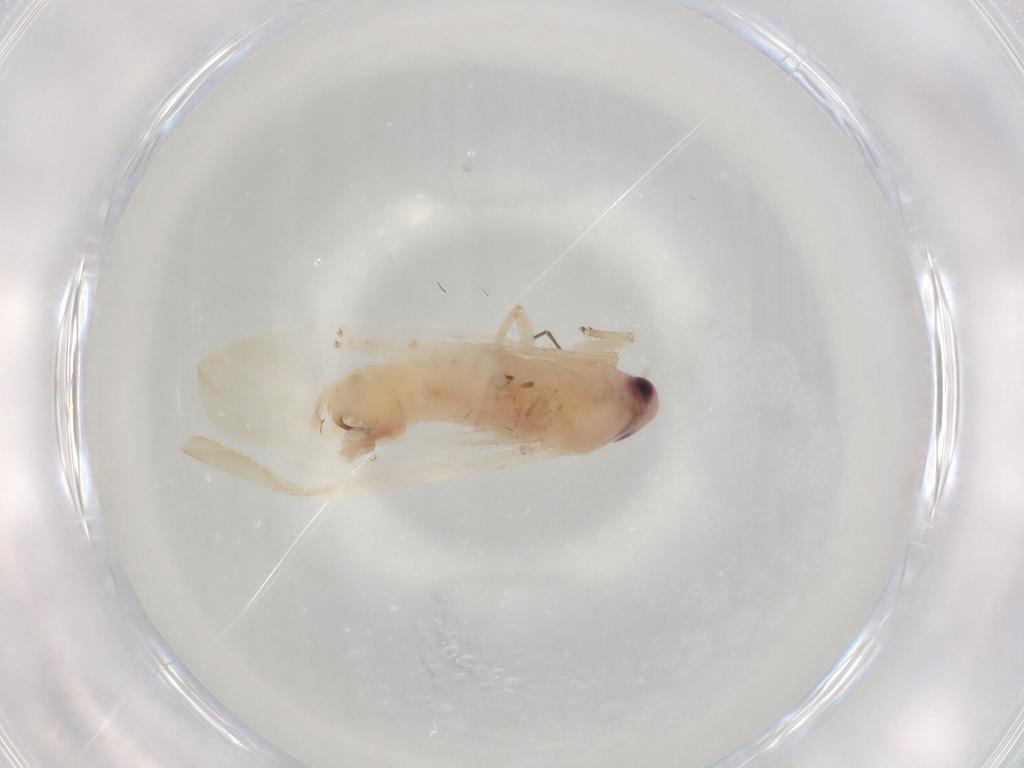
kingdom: Animalia
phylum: Arthropoda
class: Insecta
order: Hemiptera
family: Cicadellidae
